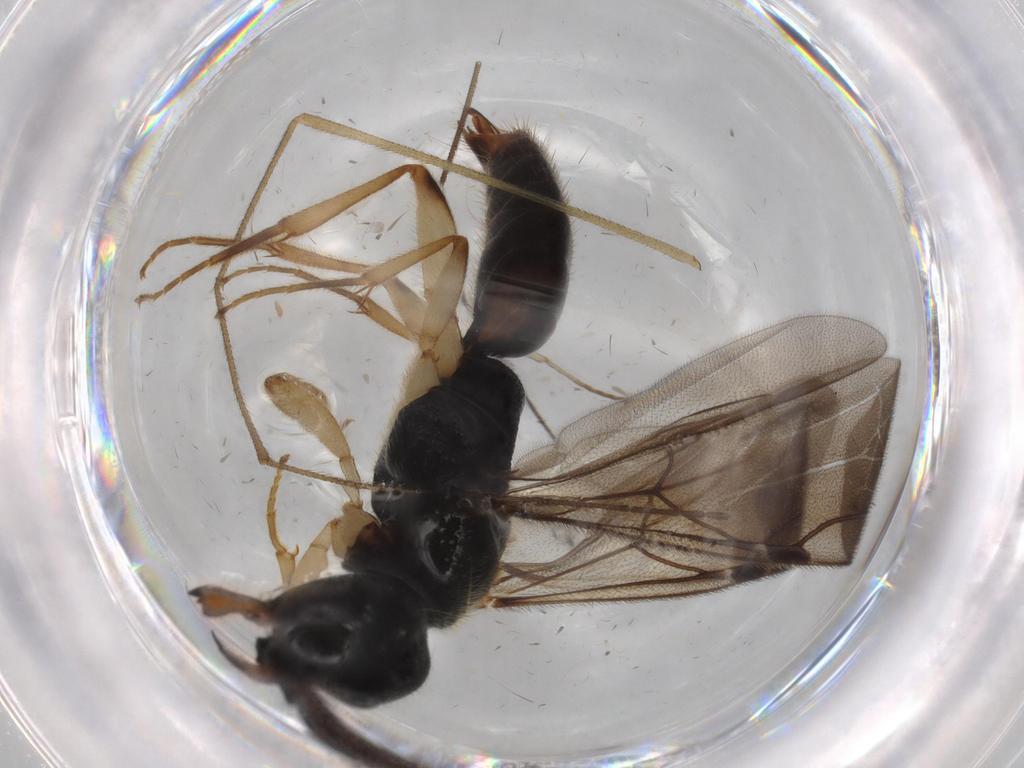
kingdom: Animalia
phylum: Arthropoda
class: Insecta
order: Hymenoptera
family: Bethylidae
